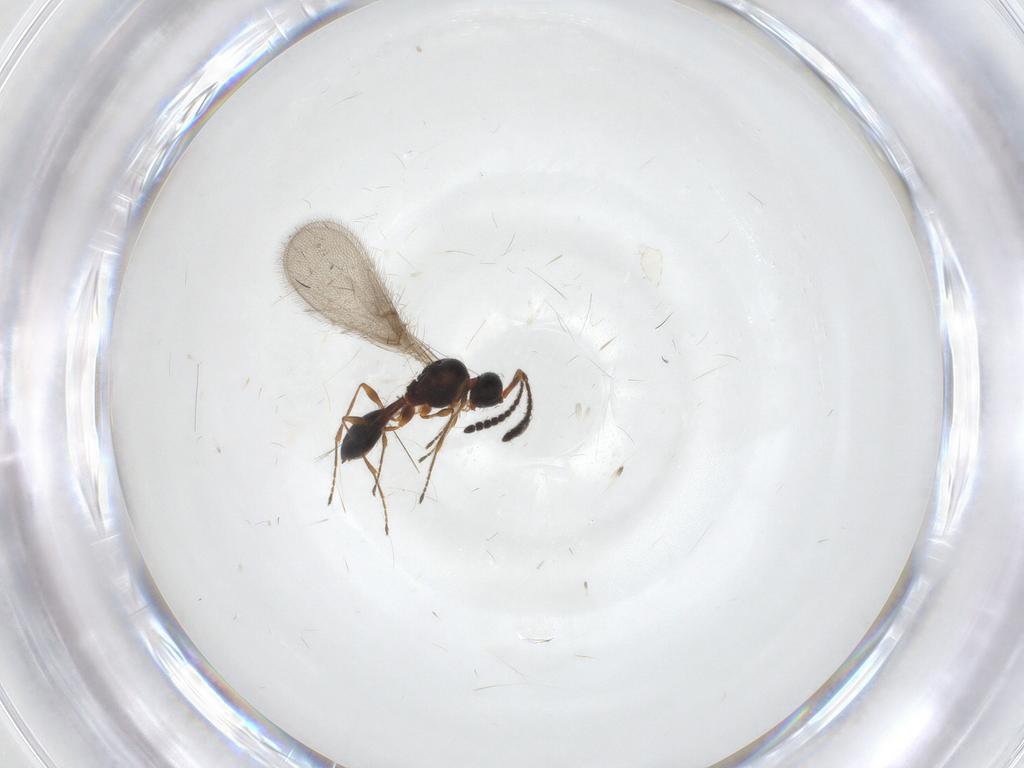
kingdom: Animalia
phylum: Arthropoda
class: Insecta
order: Hymenoptera
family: Diapriidae
